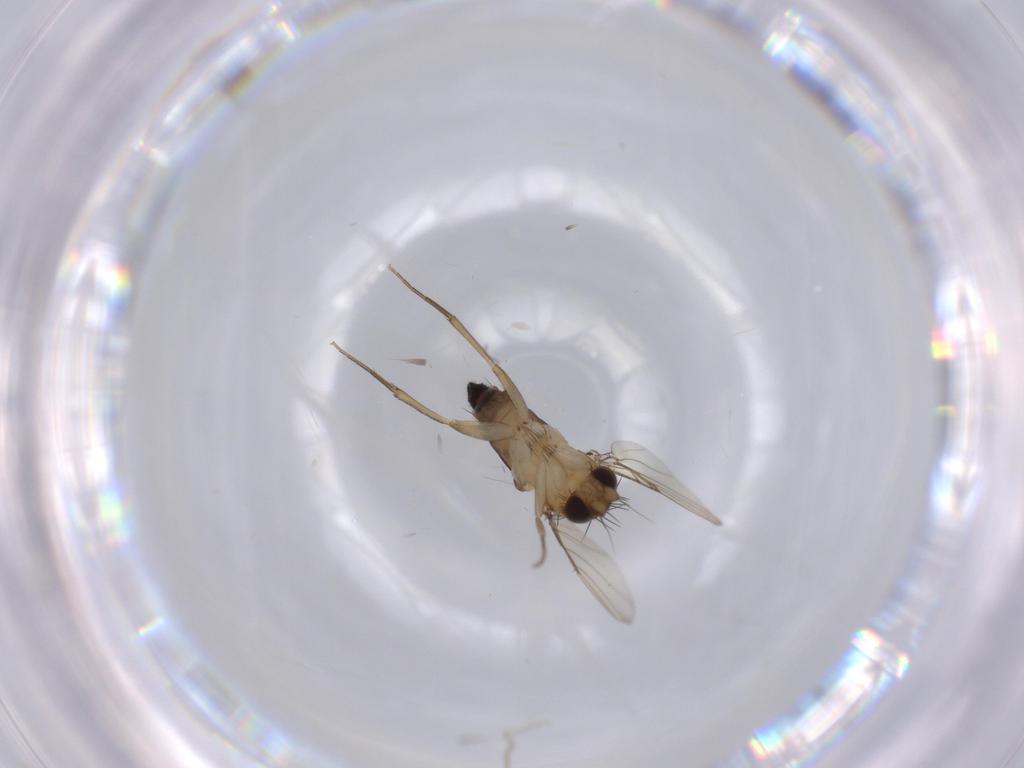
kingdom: Animalia
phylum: Arthropoda
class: Insecta
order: Diptera
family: Phoridae
